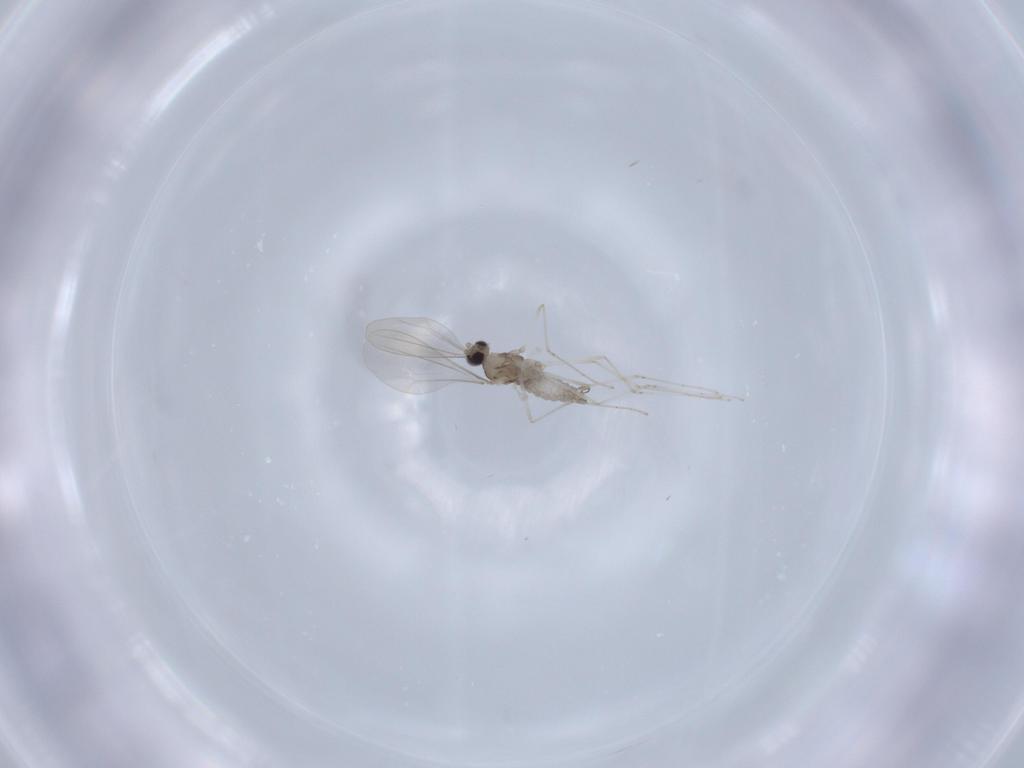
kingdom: Animalia
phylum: Arthropoda
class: Insecta
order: Diptera
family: Cecidomyiidae
